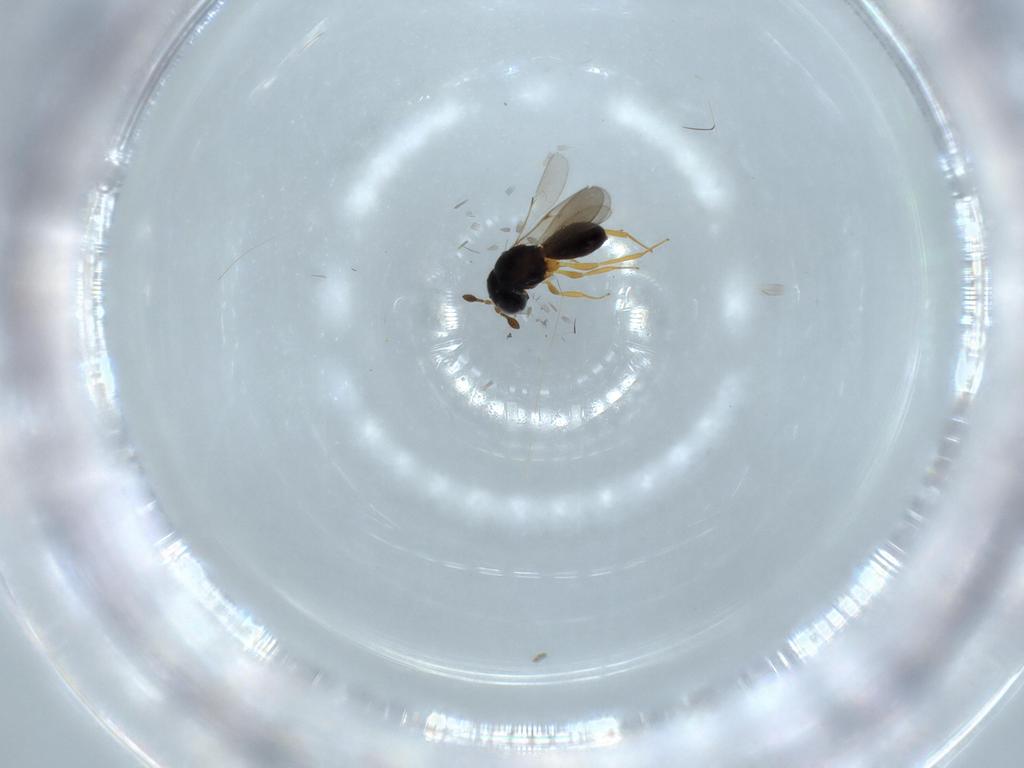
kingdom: Animalia
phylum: Arthropoda
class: Insecta
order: Hymenoptera
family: Scelionidae
